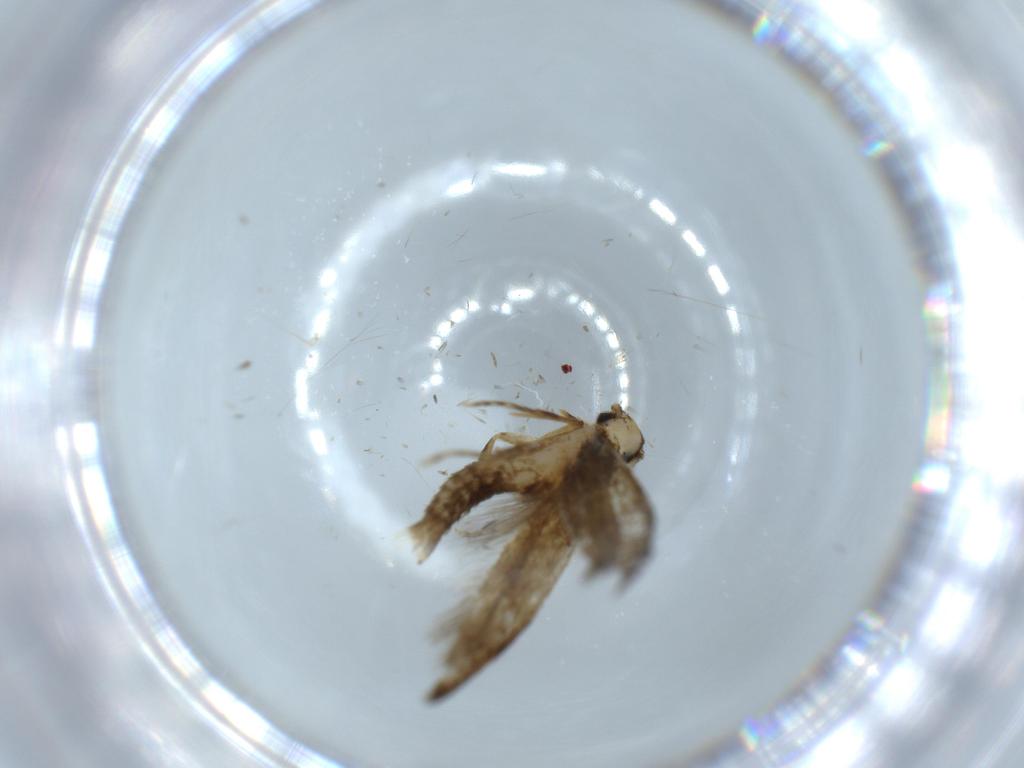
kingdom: Animalia
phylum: Arthropoda
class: Insecta
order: Lepidoptera
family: Tineidae
